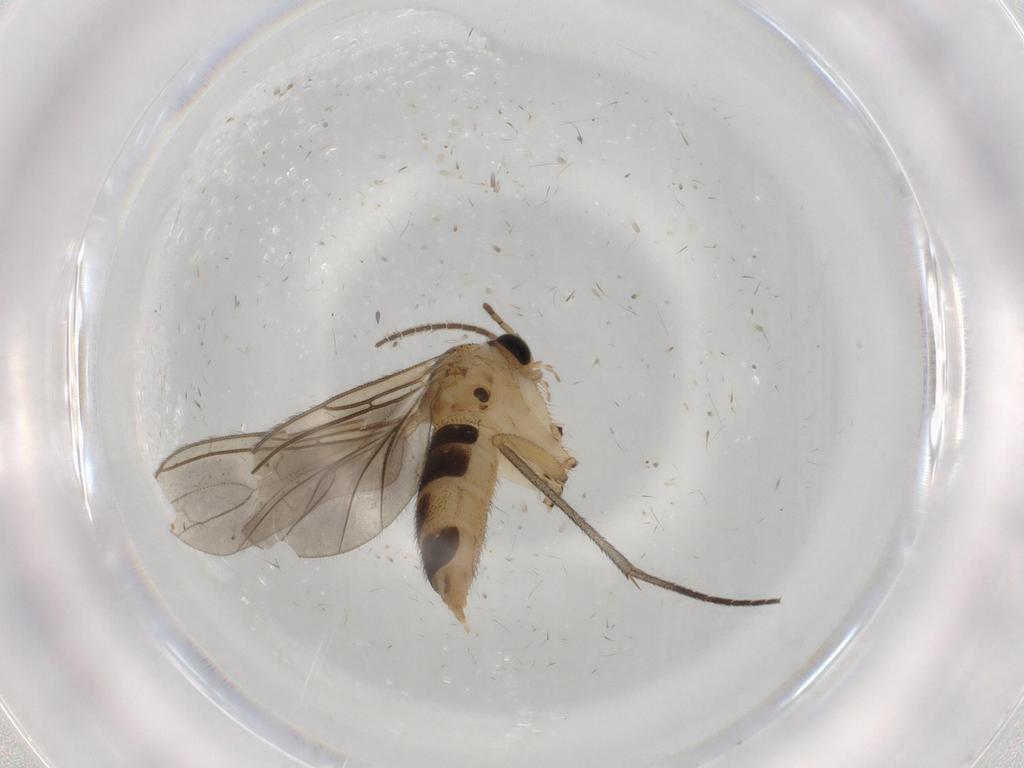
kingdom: Animalia
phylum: Arthropoda
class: Insecta
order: Diptera
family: Sciaridae
